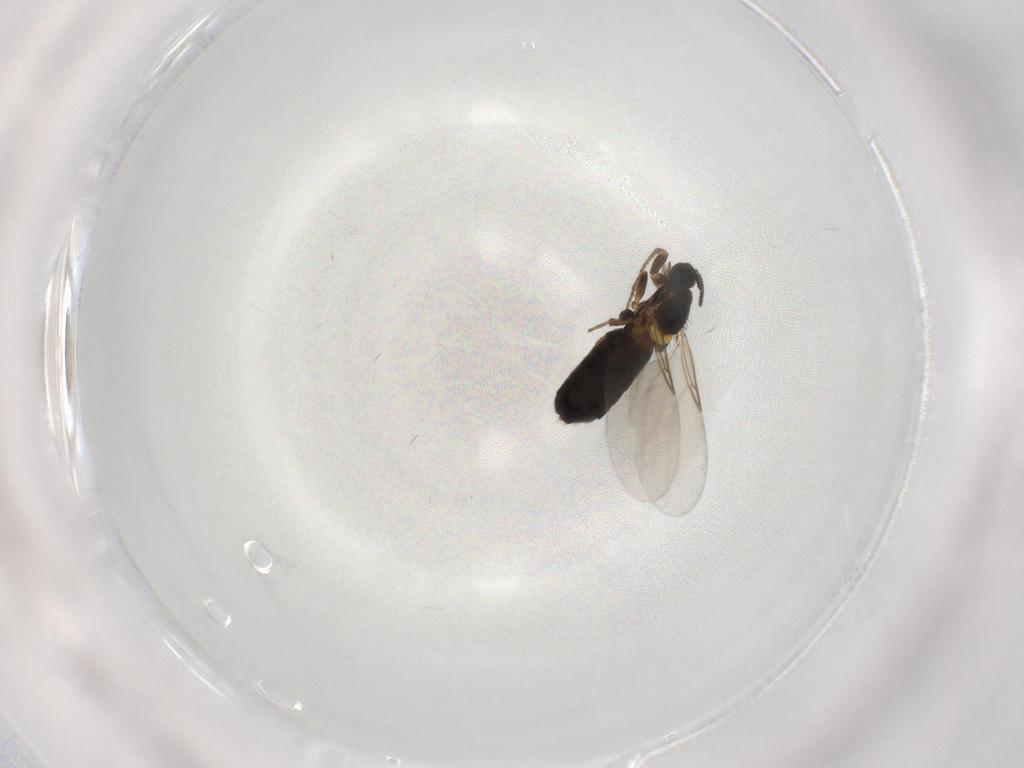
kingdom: Animalia
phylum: Arthropoda
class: Insecta
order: Diptera
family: Scatopsidae
